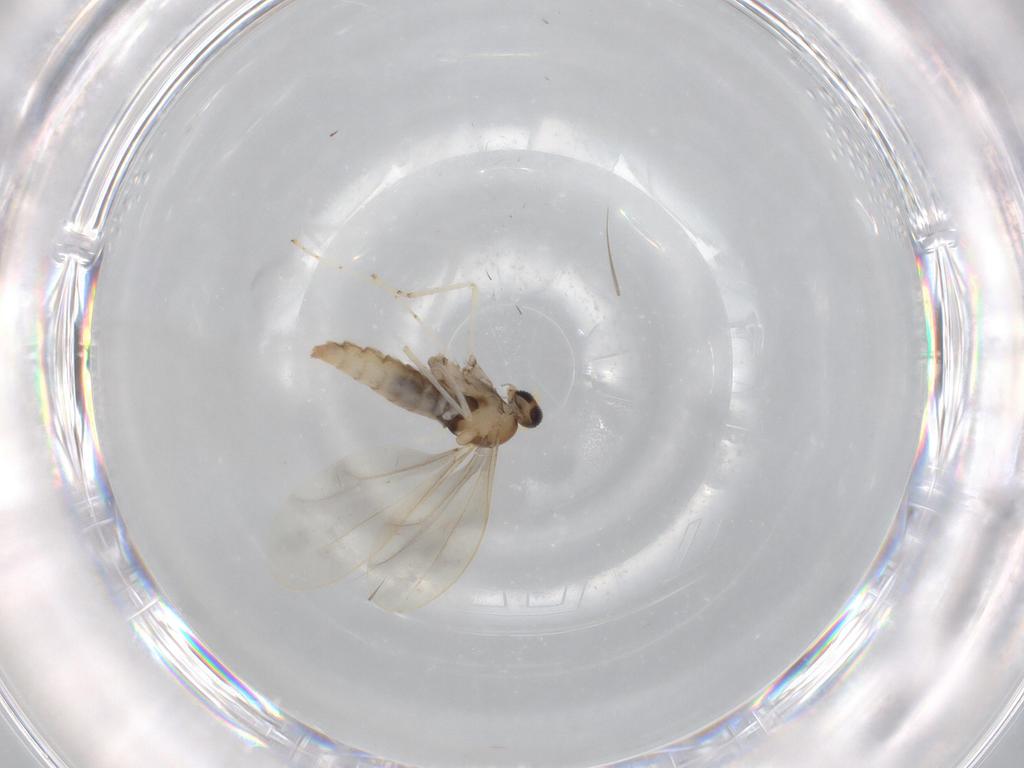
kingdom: Animalia
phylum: Arthropoda
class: Insecta
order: Diptera
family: Cecidomyiidae
